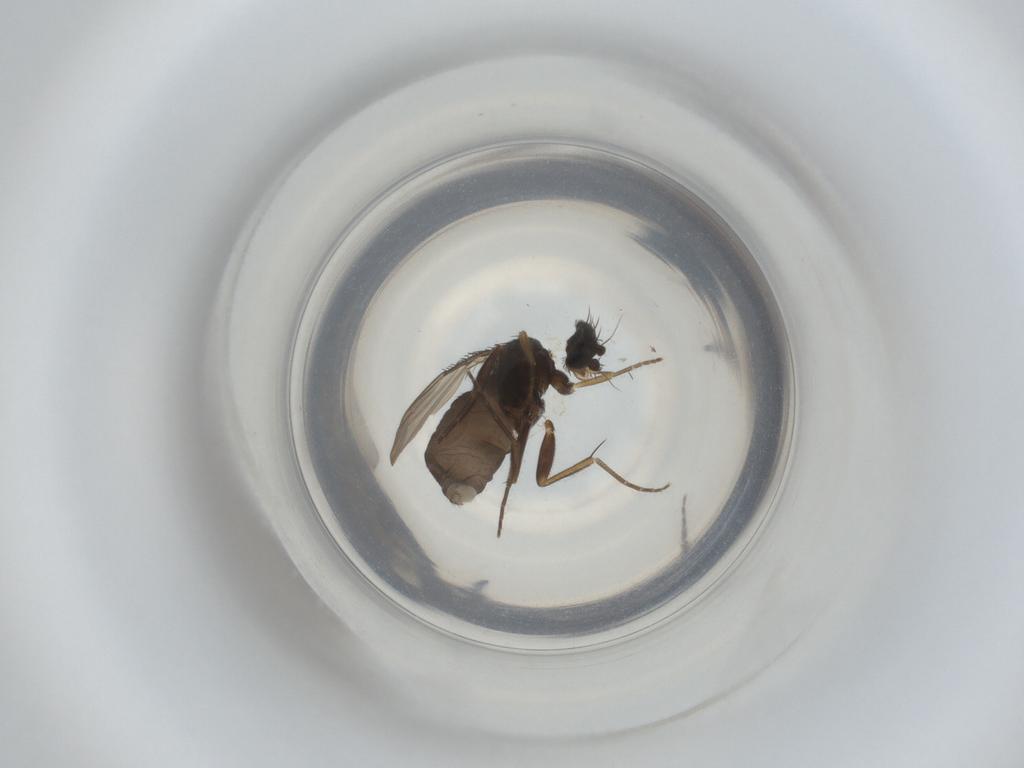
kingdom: Animalia
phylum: Arthropoda
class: Insecta
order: Diptera
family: Phoridae
